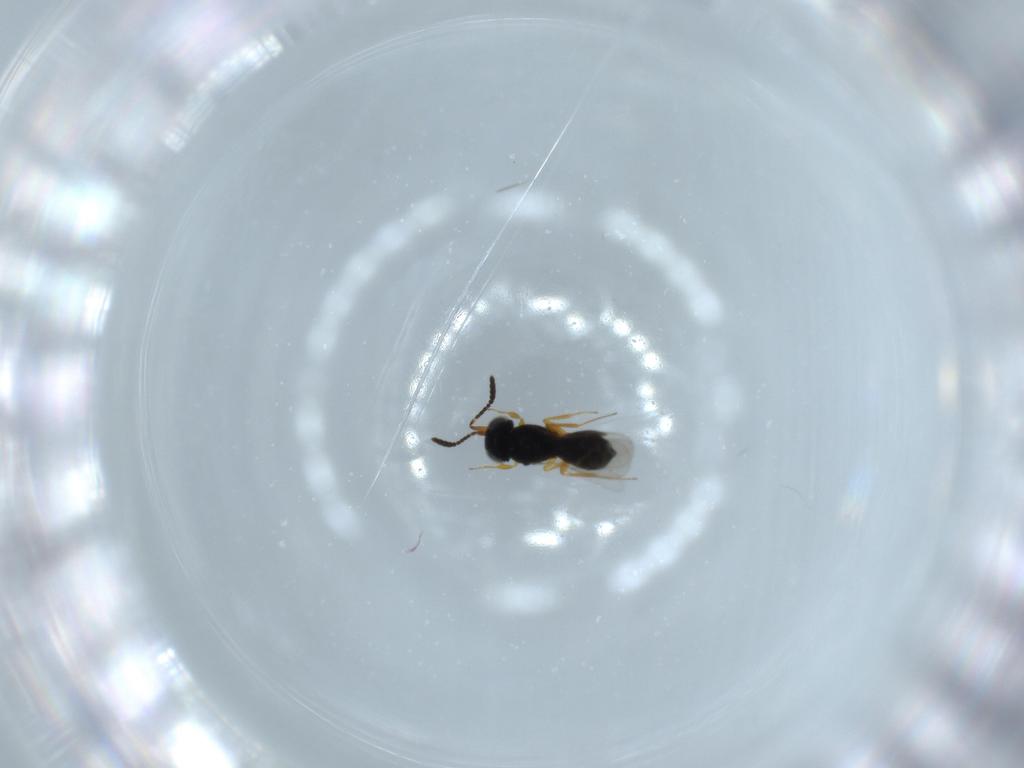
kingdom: Animalia
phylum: Arthropoda
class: Insecta
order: Hymenoptera
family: Scelionidae
